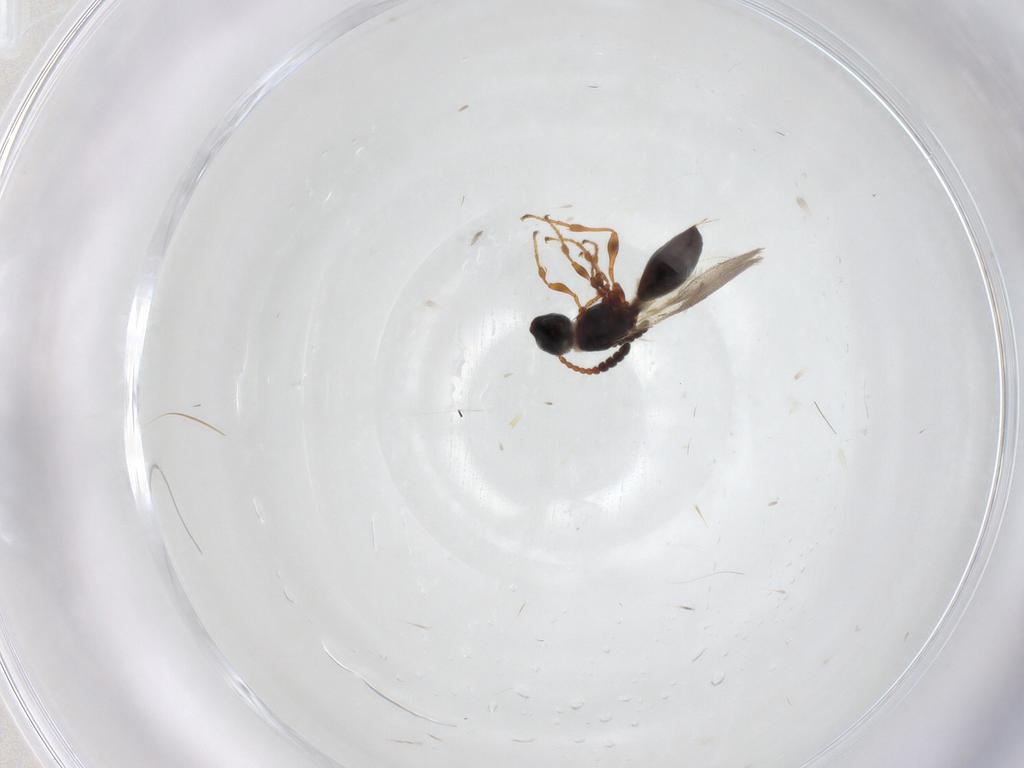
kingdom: Animalia
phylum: Arthropoda
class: Insecta
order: Hymenoptera
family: Diapriidae
